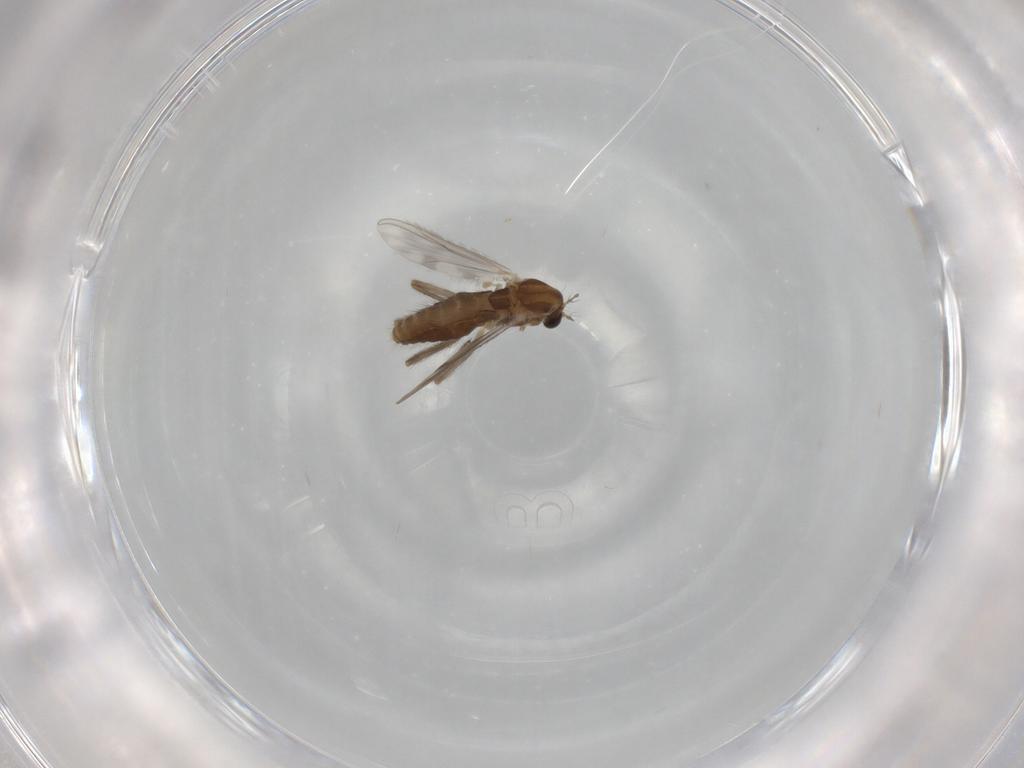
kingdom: Animalia
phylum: Arthropoda
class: Insecta
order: Diptera
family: Chironomidae
